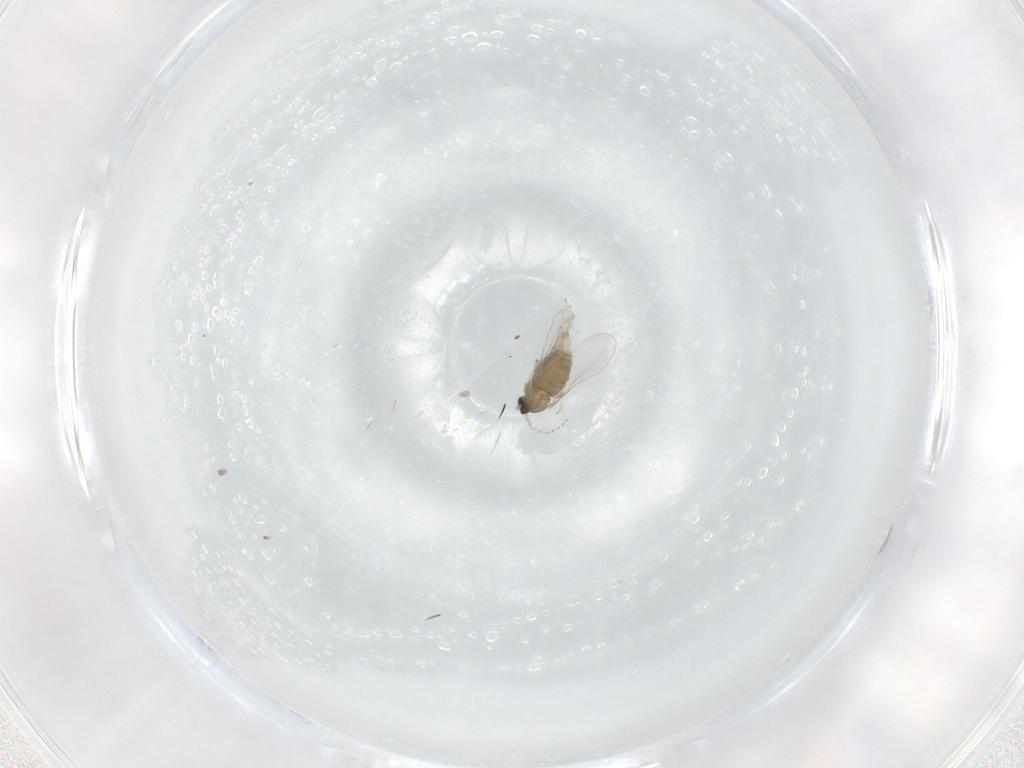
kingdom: Animalia
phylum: Arthropoda
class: Insecta
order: Diptera
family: Cecidomyiidae
